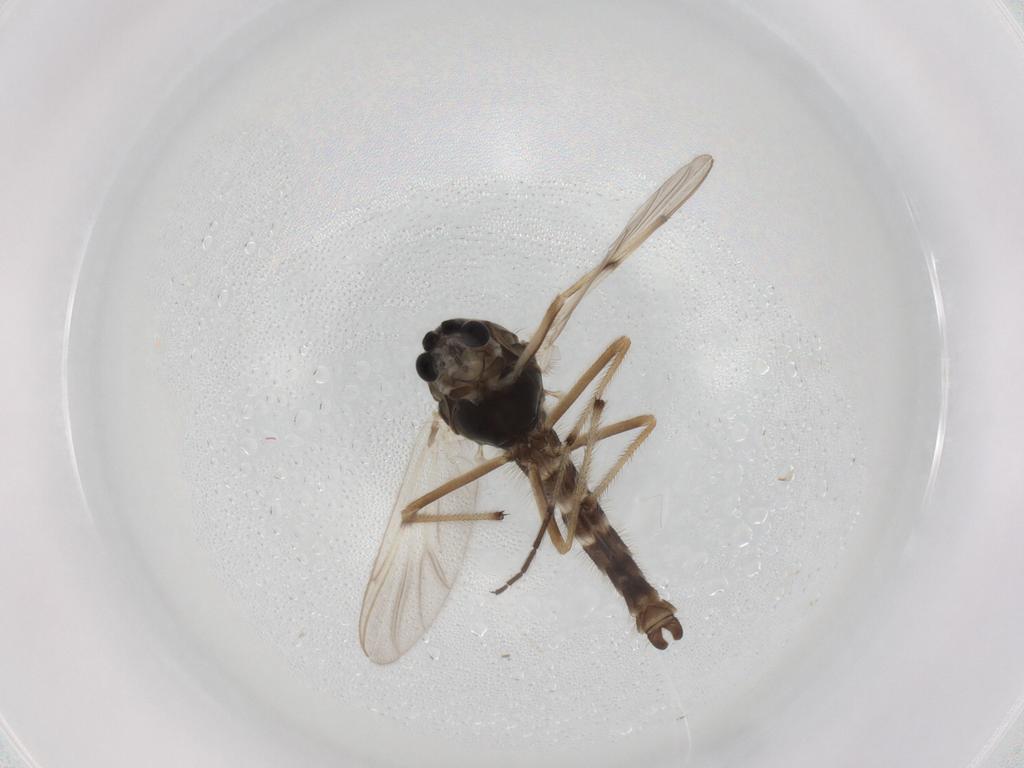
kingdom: Animalia
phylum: Arthropoda
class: Insecta
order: Diptera
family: Chironomidae
